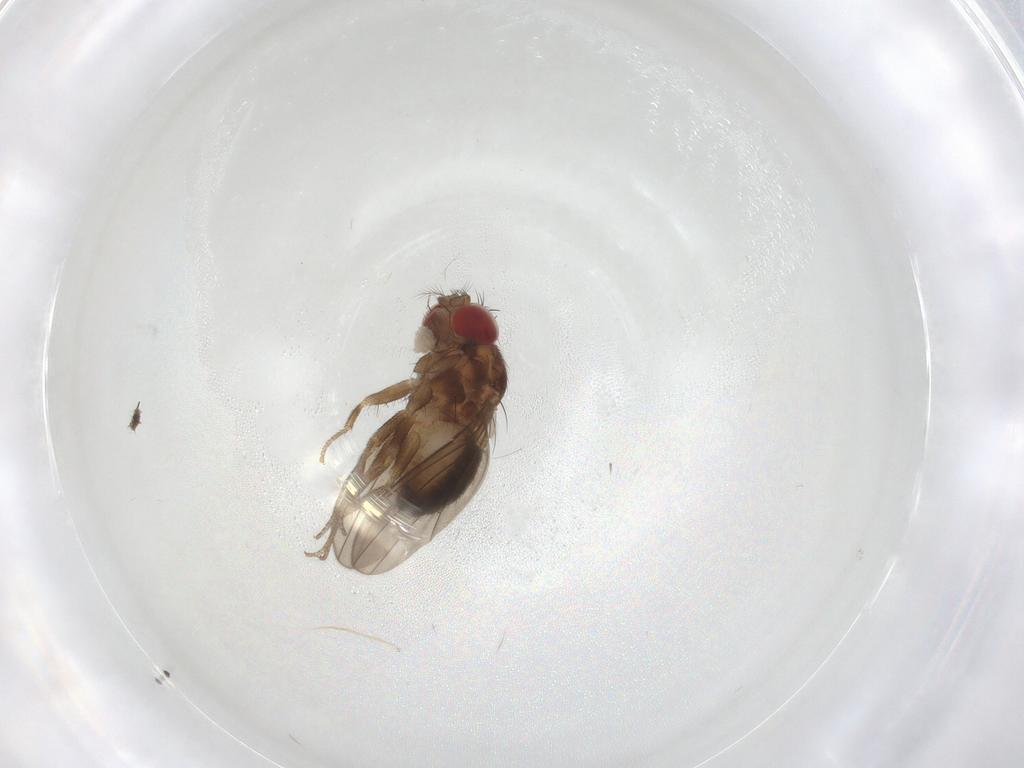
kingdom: Animalia
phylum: Arthropoda
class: Insecta
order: Diptera
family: Drosophilidae
